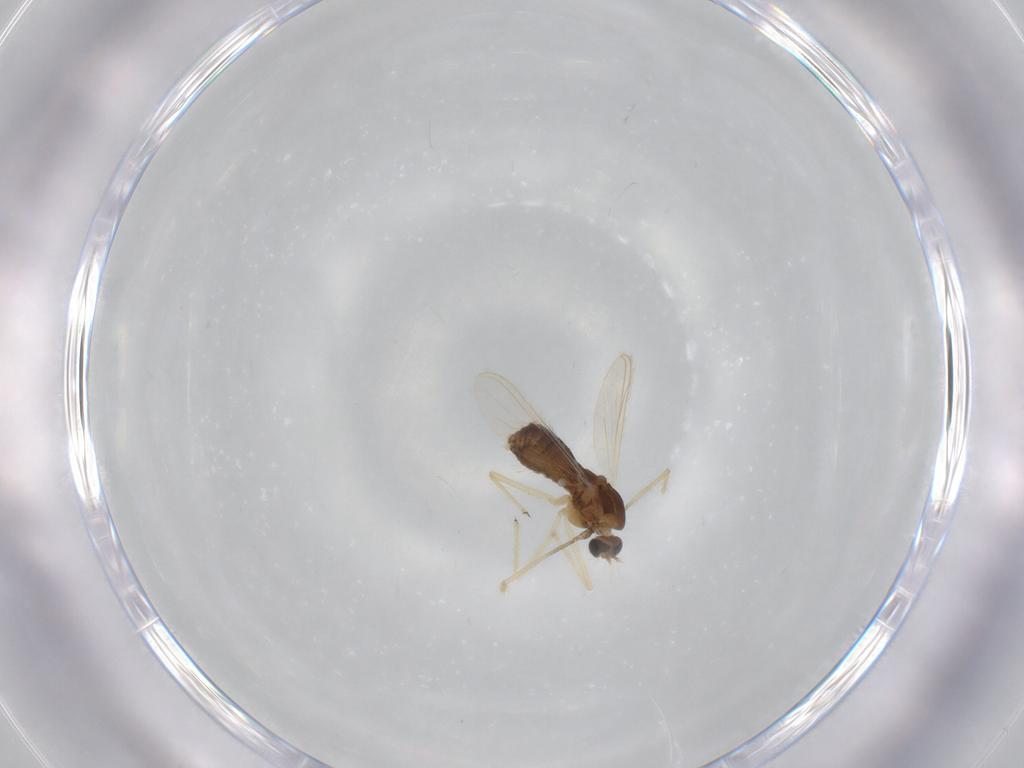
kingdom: Animalia
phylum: Arthropoda
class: Insecta
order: Diptera
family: Chironomidae
